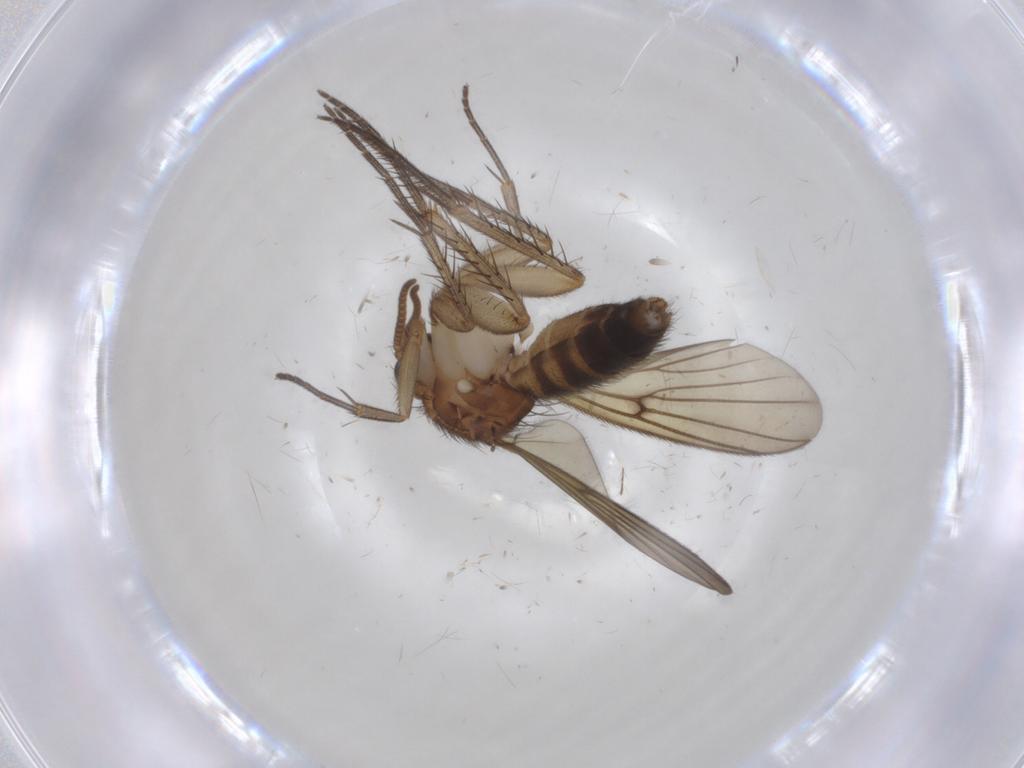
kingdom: Animalia
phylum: Arthropoda
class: Insecta
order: Diptera
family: Mycetophilidae
